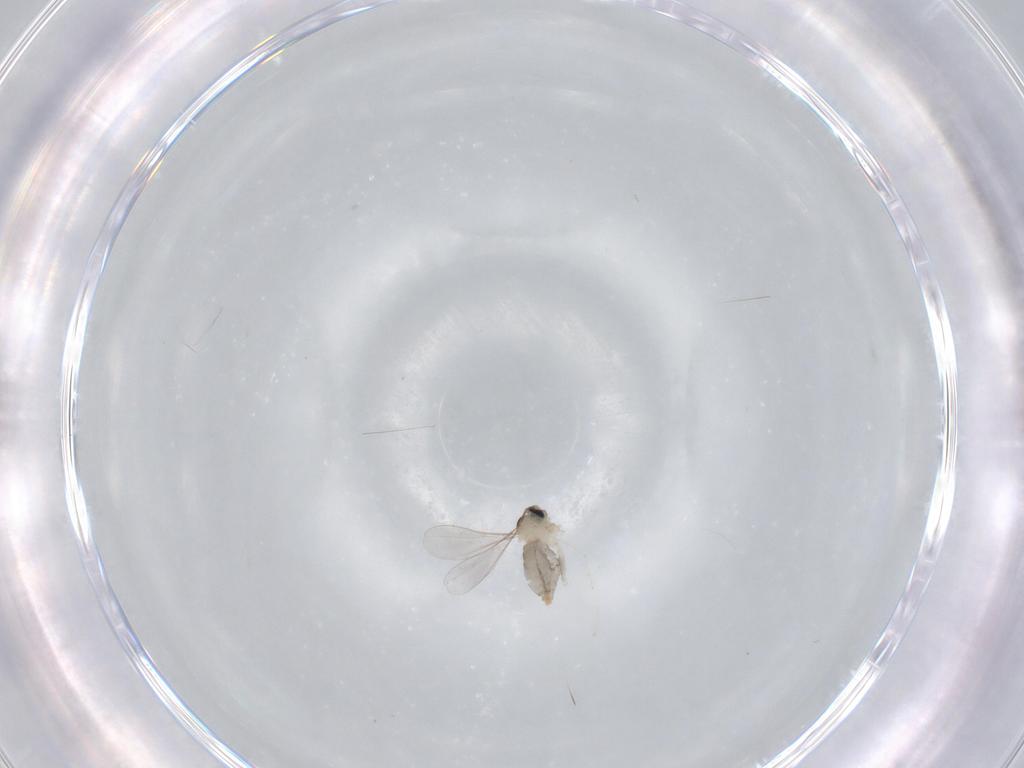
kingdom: Animalia
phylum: Arthropoda
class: Insecta
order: Diptera
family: Cecidomyiidae
